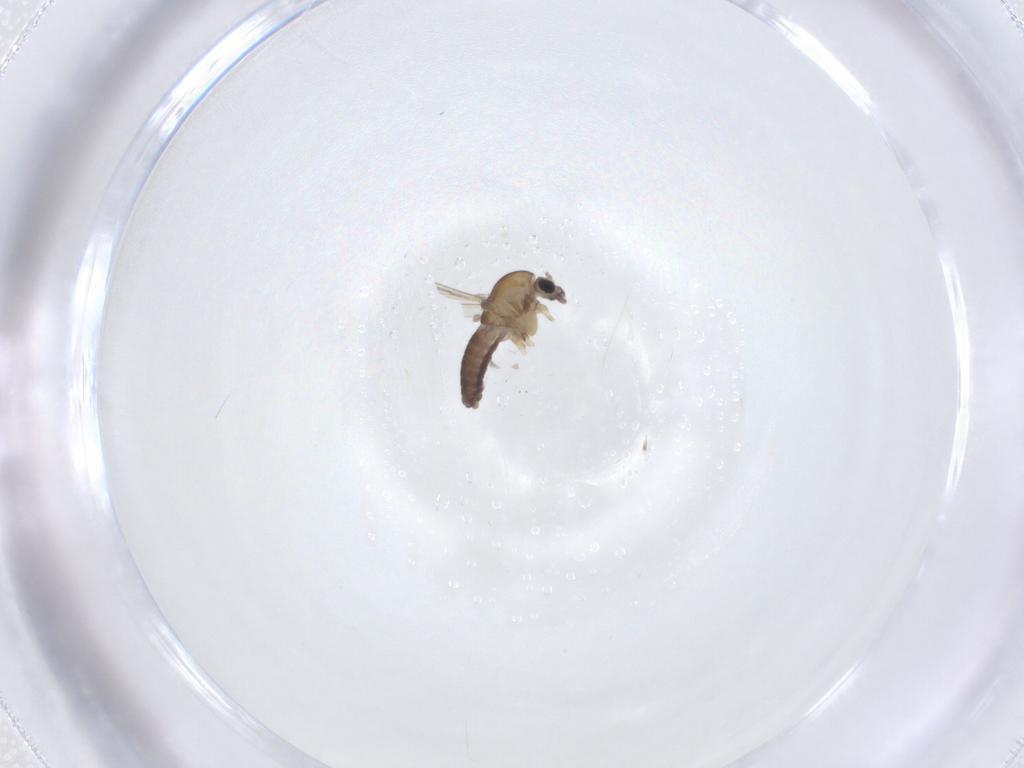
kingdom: Animalia
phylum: Arthropoda
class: Insecta
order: Diptera
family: Chironomidae
